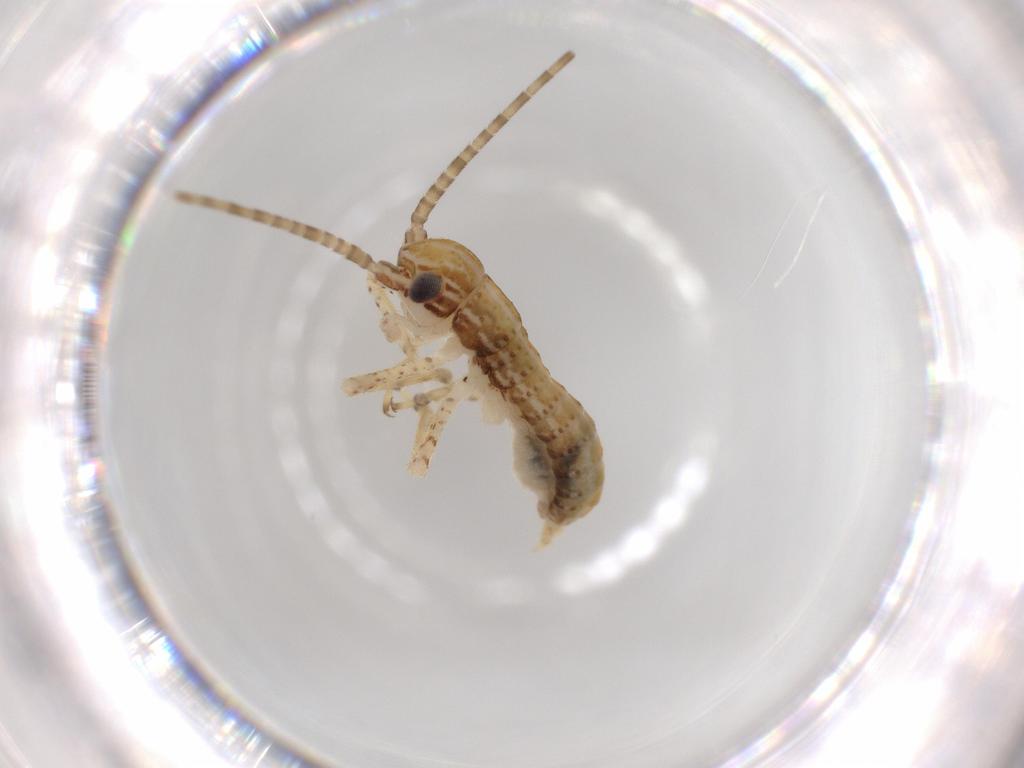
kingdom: Animalia
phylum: Arthropoda
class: Insecta
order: Orthoptera
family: Gryllidae
